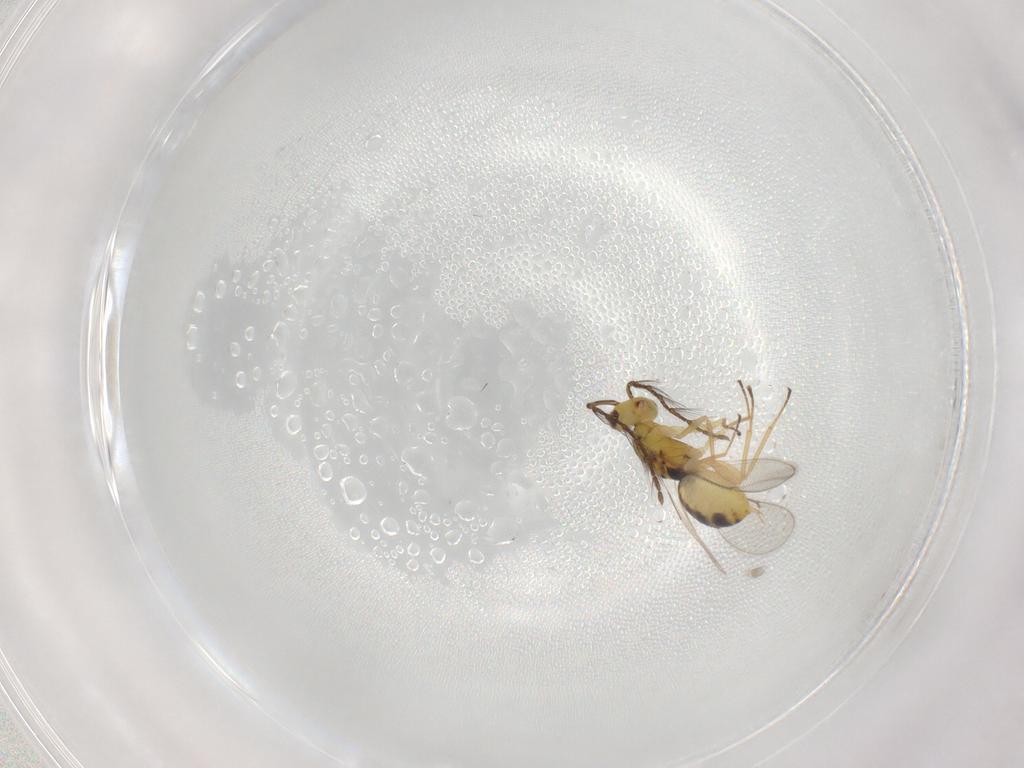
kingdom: Animalia
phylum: Arthropoda
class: Insecta
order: Hymenoptera
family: Eulophidae
